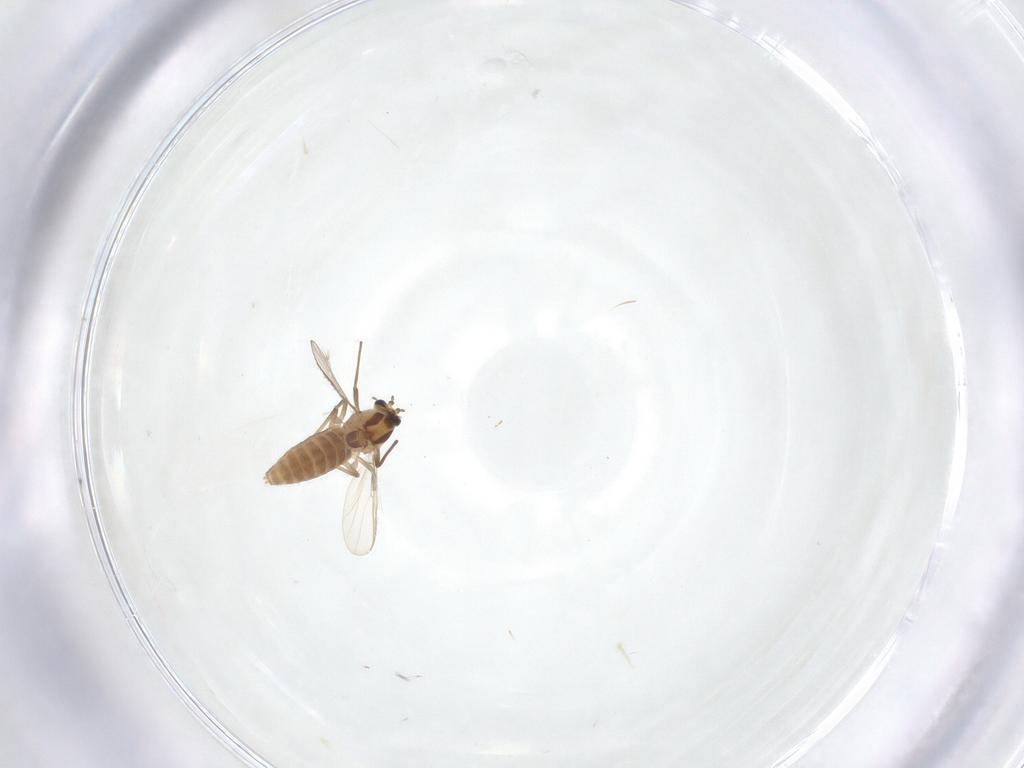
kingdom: Animalia
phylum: Arthropoda
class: Insecta
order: Diptera
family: Chironomidae
